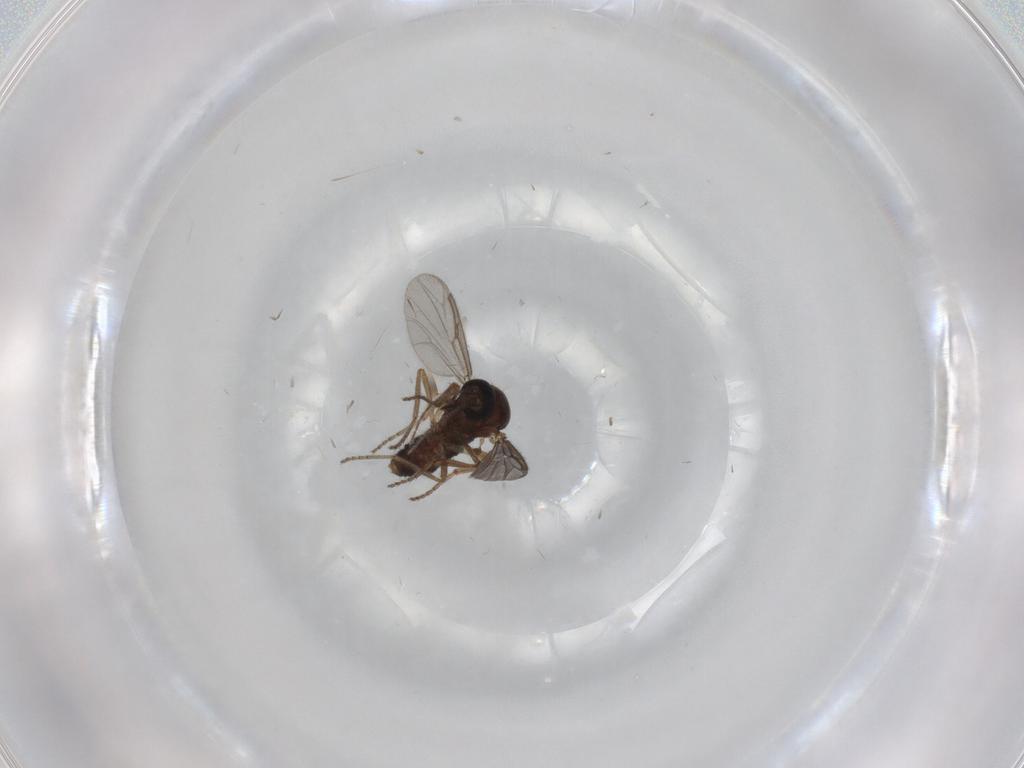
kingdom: Animalia
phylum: Arthropoda
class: Insecta
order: Diptera
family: Ceratopogonidae
